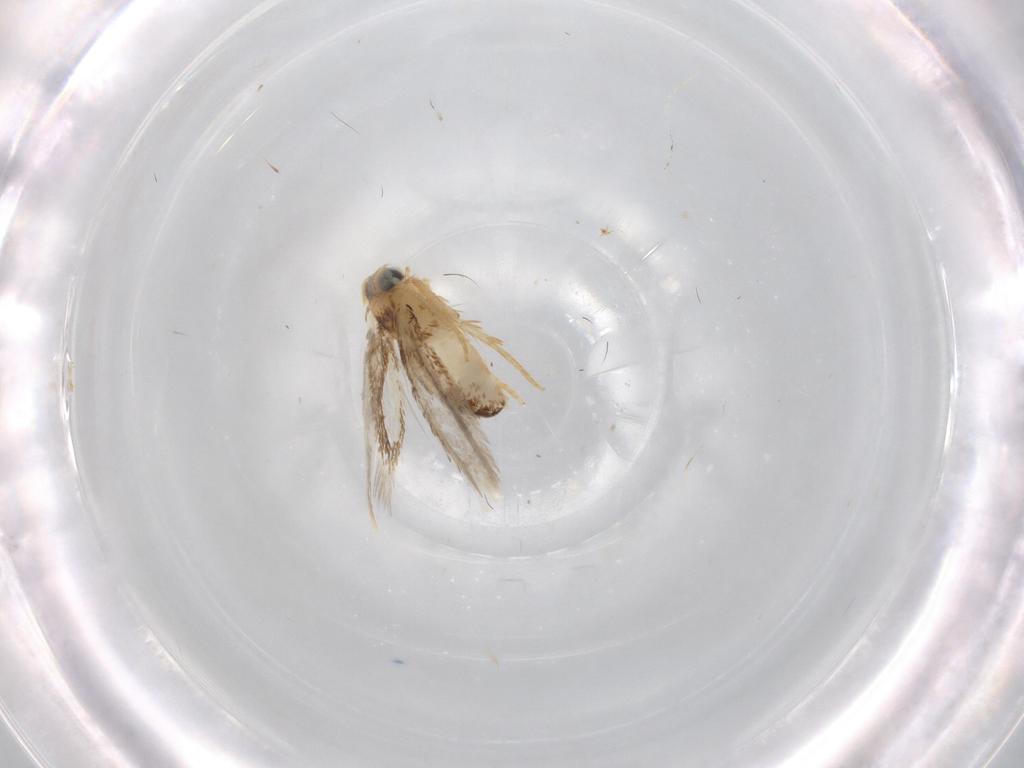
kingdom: Animalia
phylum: Arthropoda
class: Insecta
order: Lepidoptera
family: Nepticulidae
